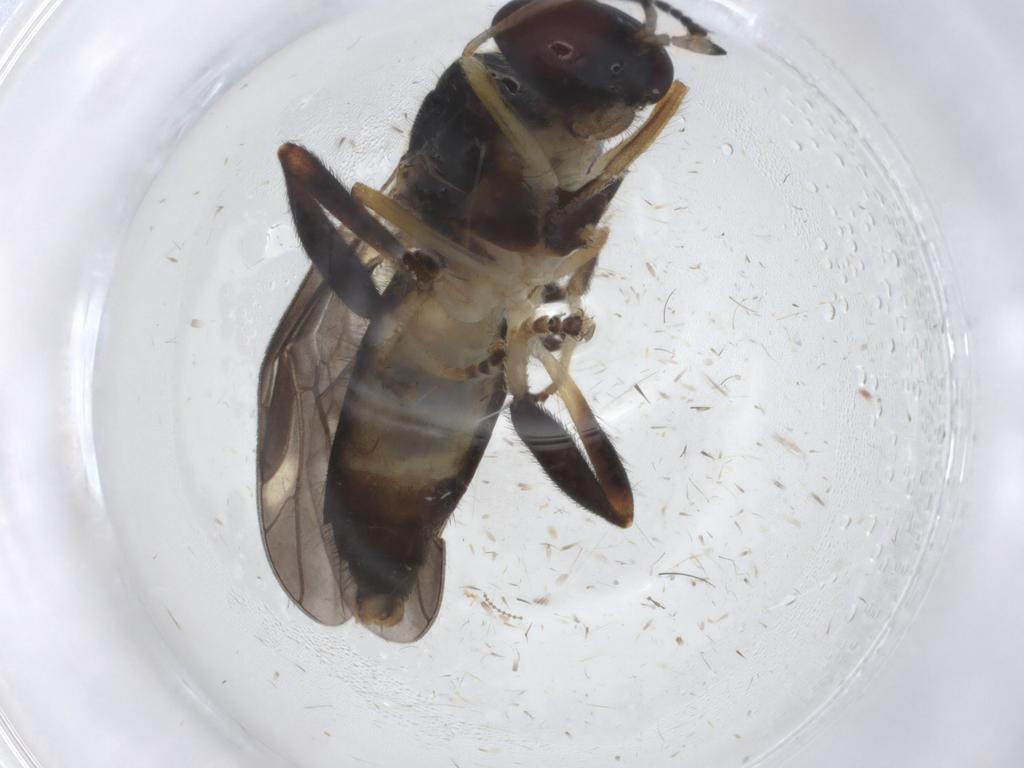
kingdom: Animalia
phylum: Arthropoda
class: Insecta
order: Diptera
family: Stratiomyidae
